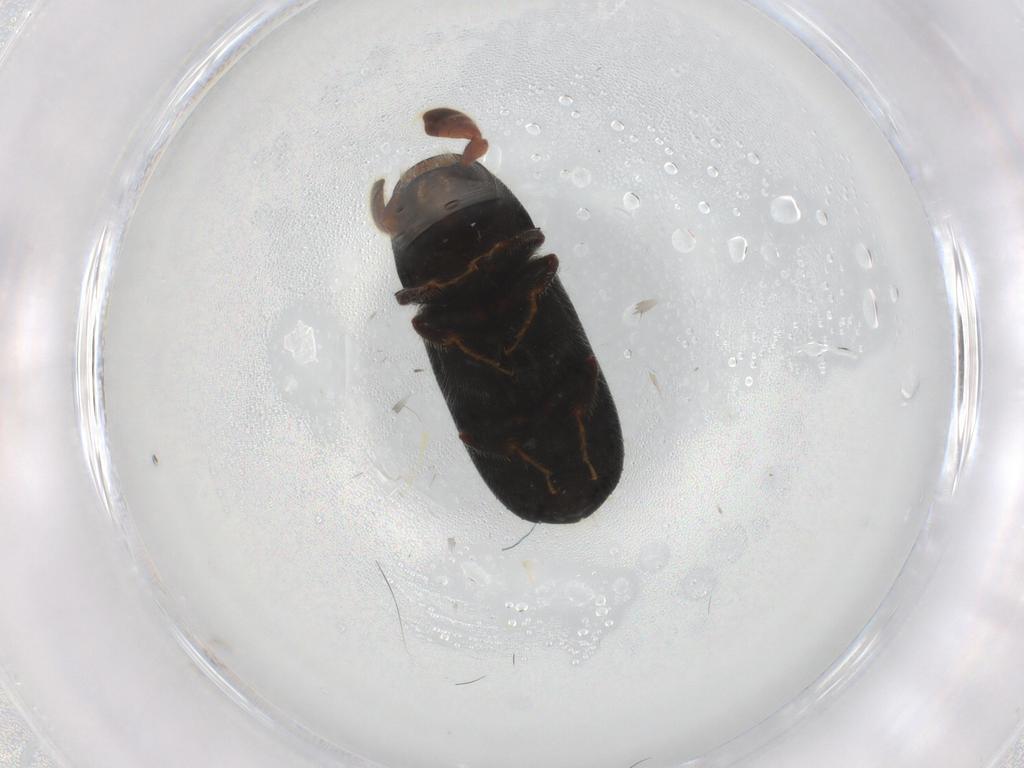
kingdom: Animalia
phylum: Arthropoda
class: Insecta
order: Coleoptera
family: Curculionidae
